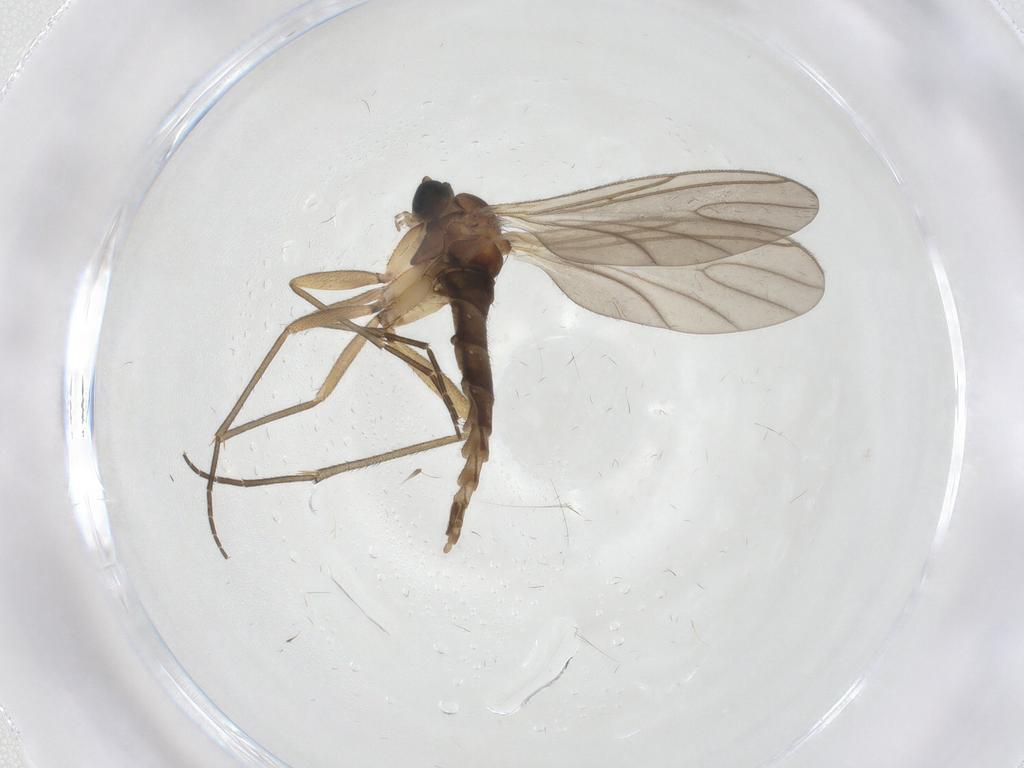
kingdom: Animalia
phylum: Arthropoda
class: Insecta
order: Diptera
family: Sciaridae
